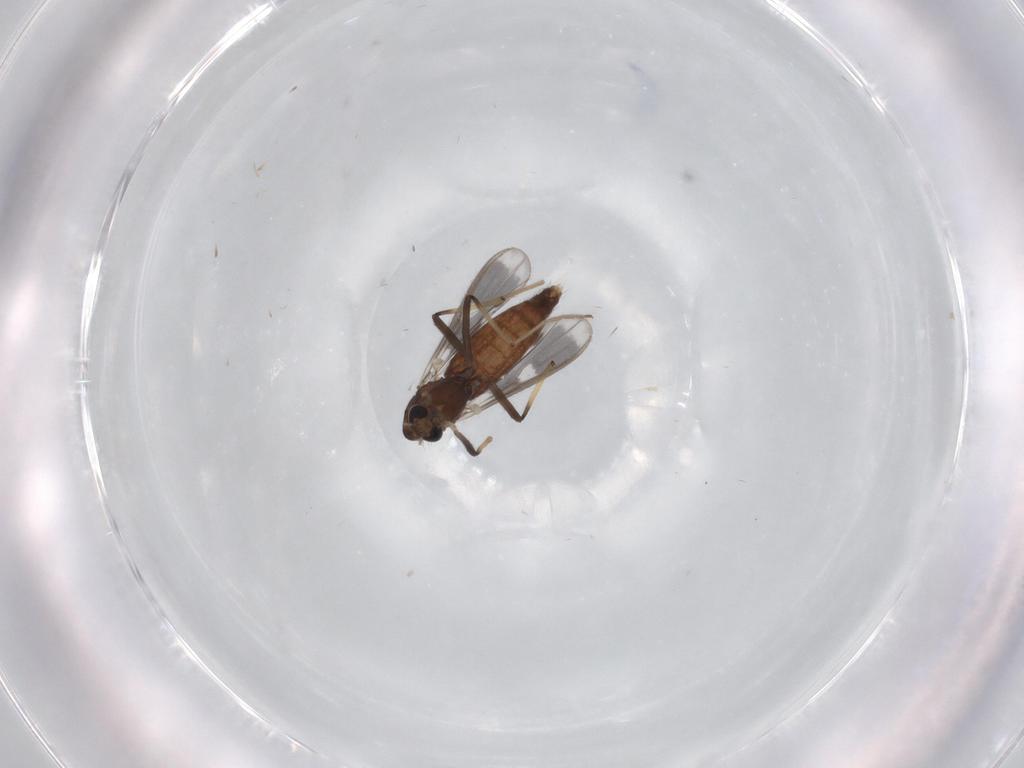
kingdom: Animalia
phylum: Arthropoda
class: Insecta
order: Diptera
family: Chironomidae
